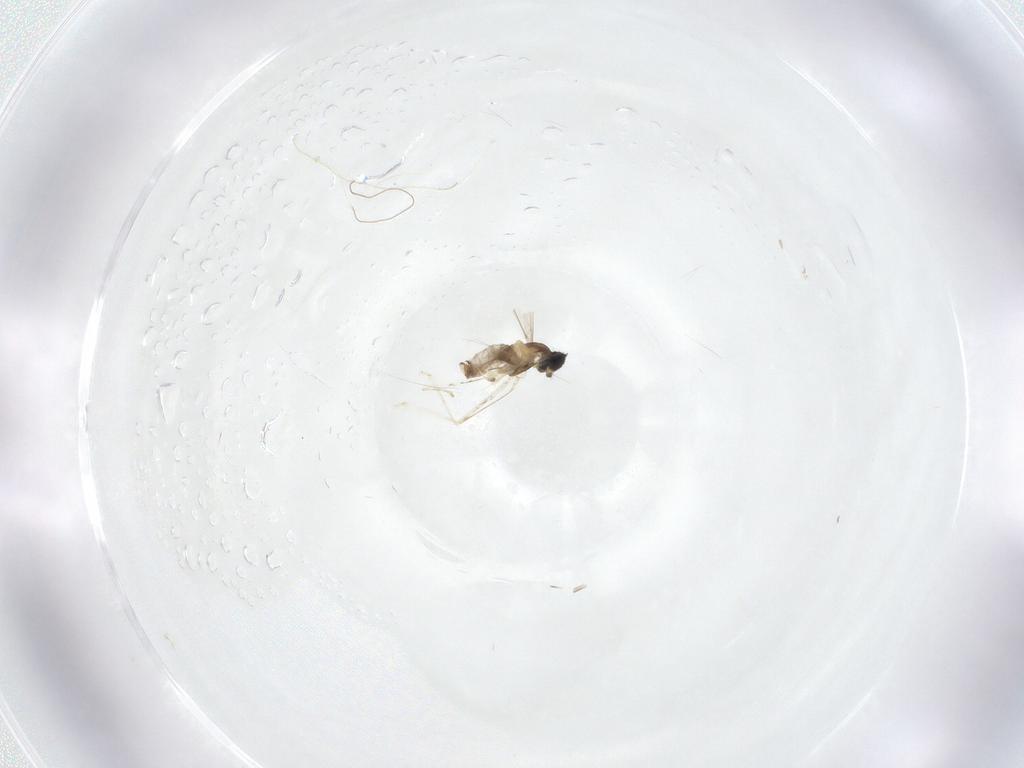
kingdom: Animalia
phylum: Arthropoda
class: Insecta
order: Diptera
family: Cecidomyiidae
